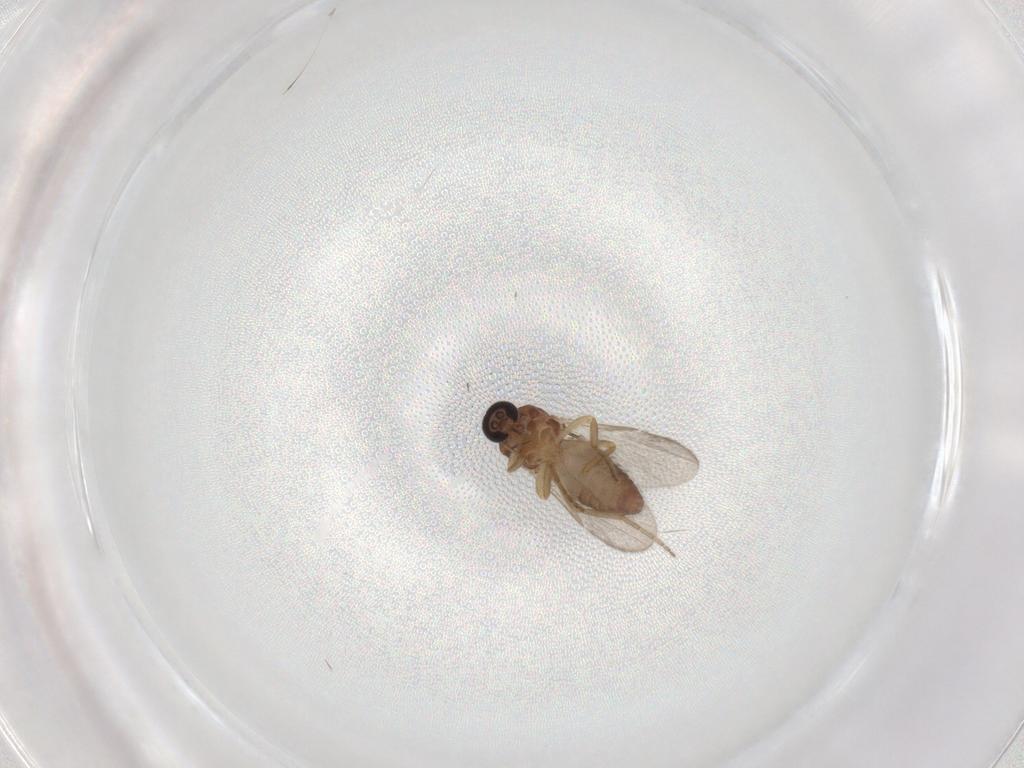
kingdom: Animalia
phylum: Arthropoda
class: Insecta
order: Diptera
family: Ceratopogonidae
